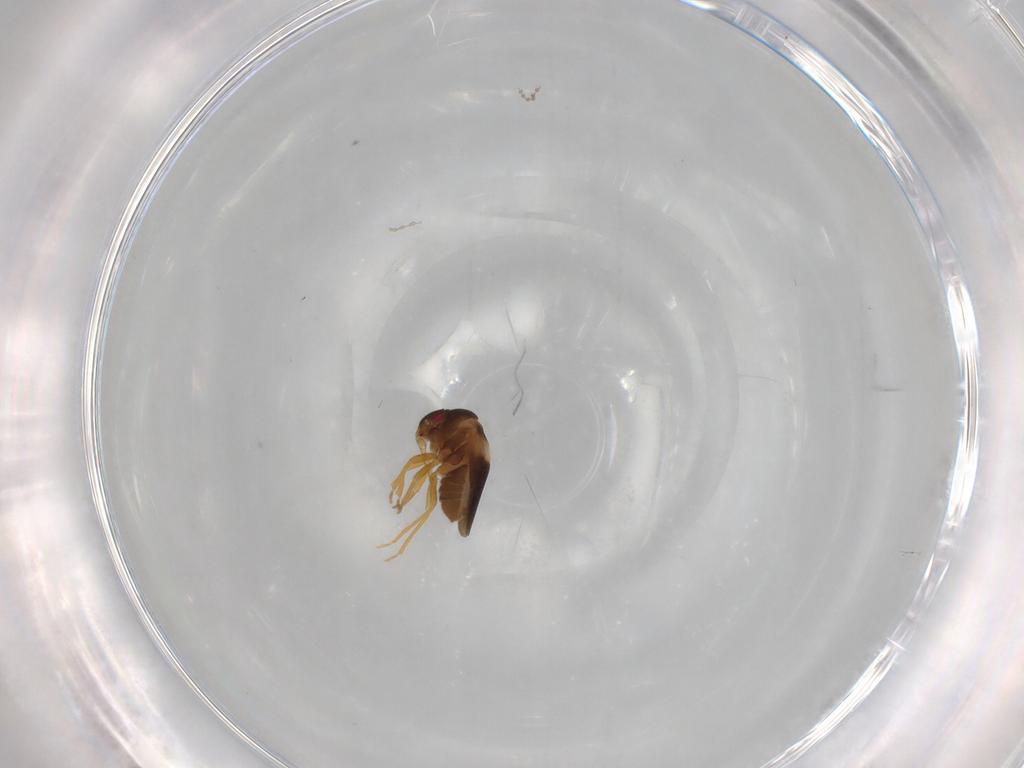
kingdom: Animalia
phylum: Arthropoda
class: Insecta
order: Hemiptera
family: Schizopteridae
